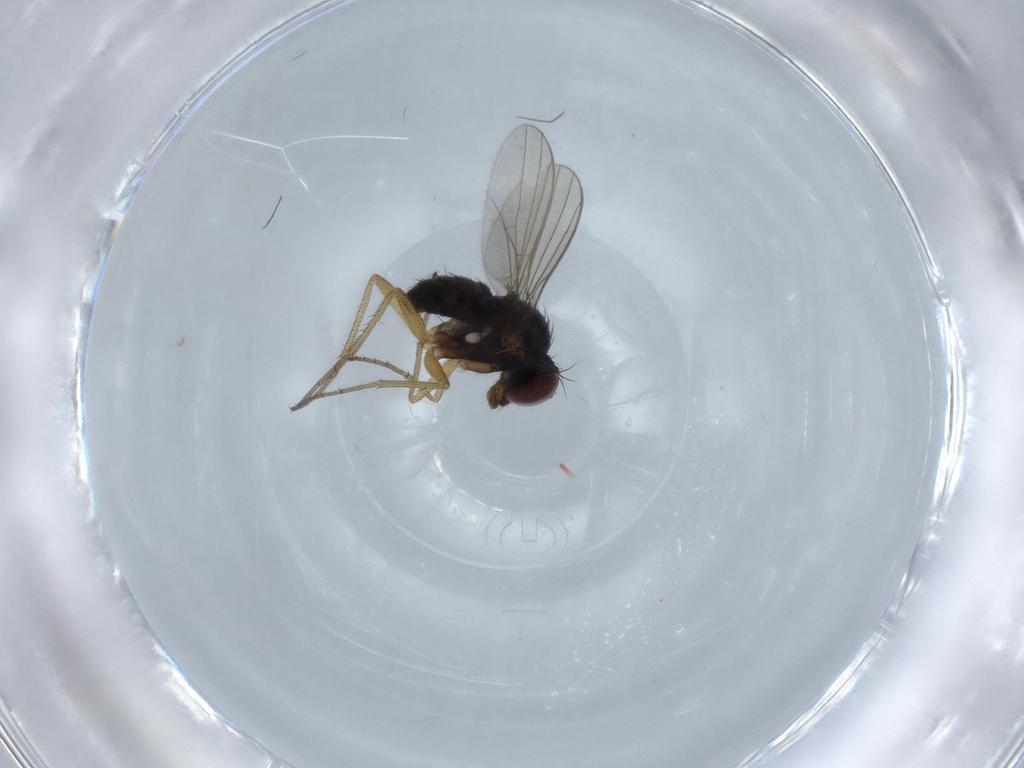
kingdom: Animalia
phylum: Arthropoda
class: Insecta
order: Diptera
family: Dolichopodidae
